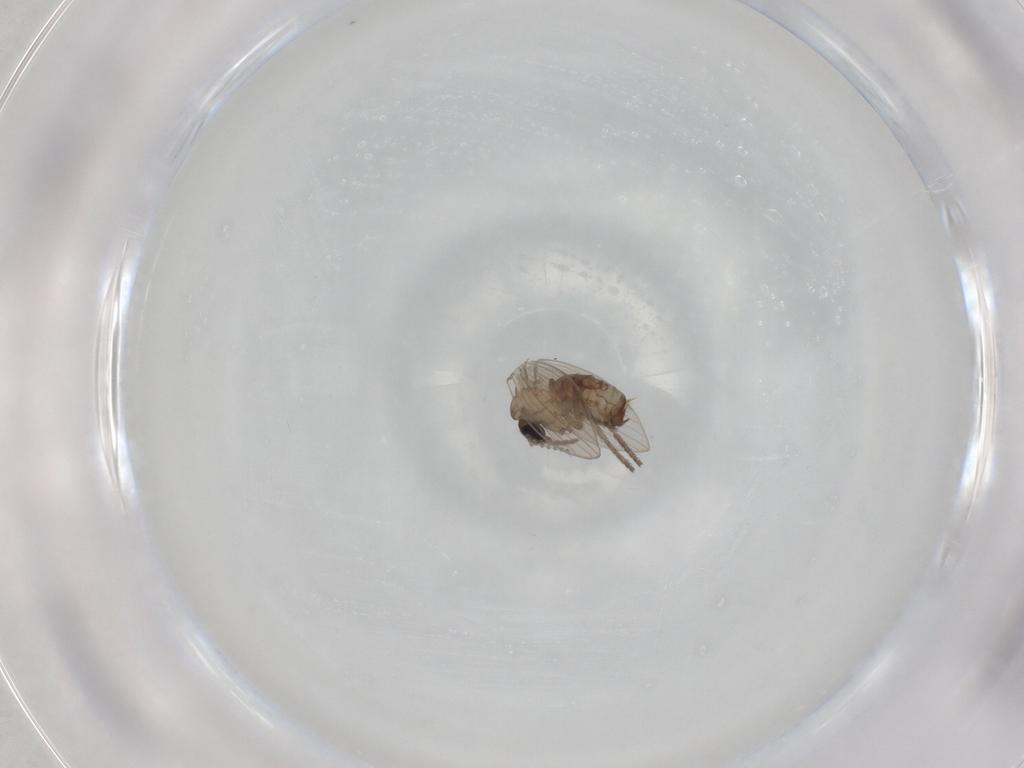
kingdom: Animalia
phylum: Arthropoda
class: Insecta
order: Diptera
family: Psychodidae
